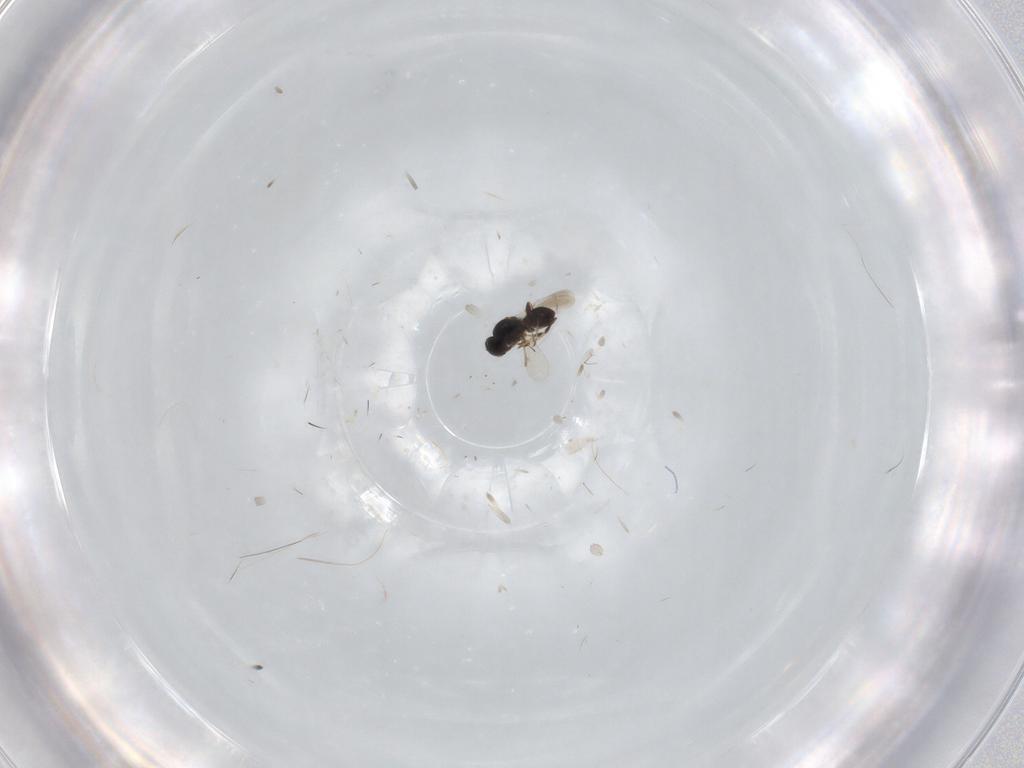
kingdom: Animalia
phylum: Arthropoda
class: Insecta
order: Hymenoptera
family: Platygastridae
